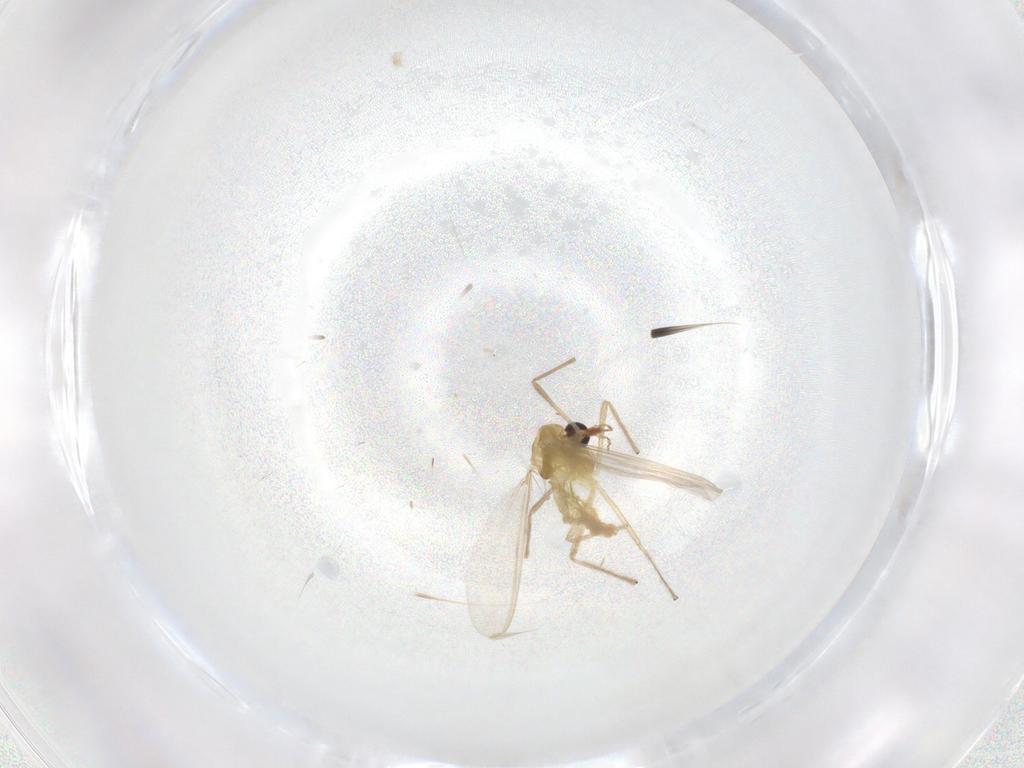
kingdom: Animalia
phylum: Arthropoda
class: Insecta
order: Diptera
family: Chironomidae
